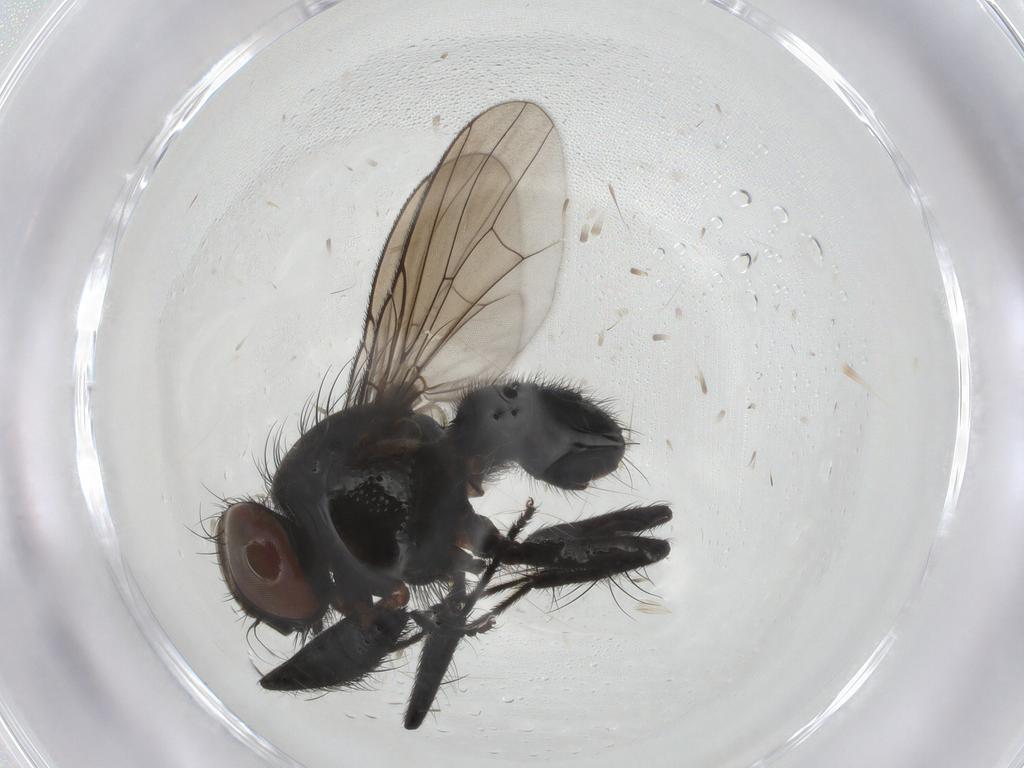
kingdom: Animalia
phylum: Arthropoda
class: Insecta
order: Diptera
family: Muscidae
